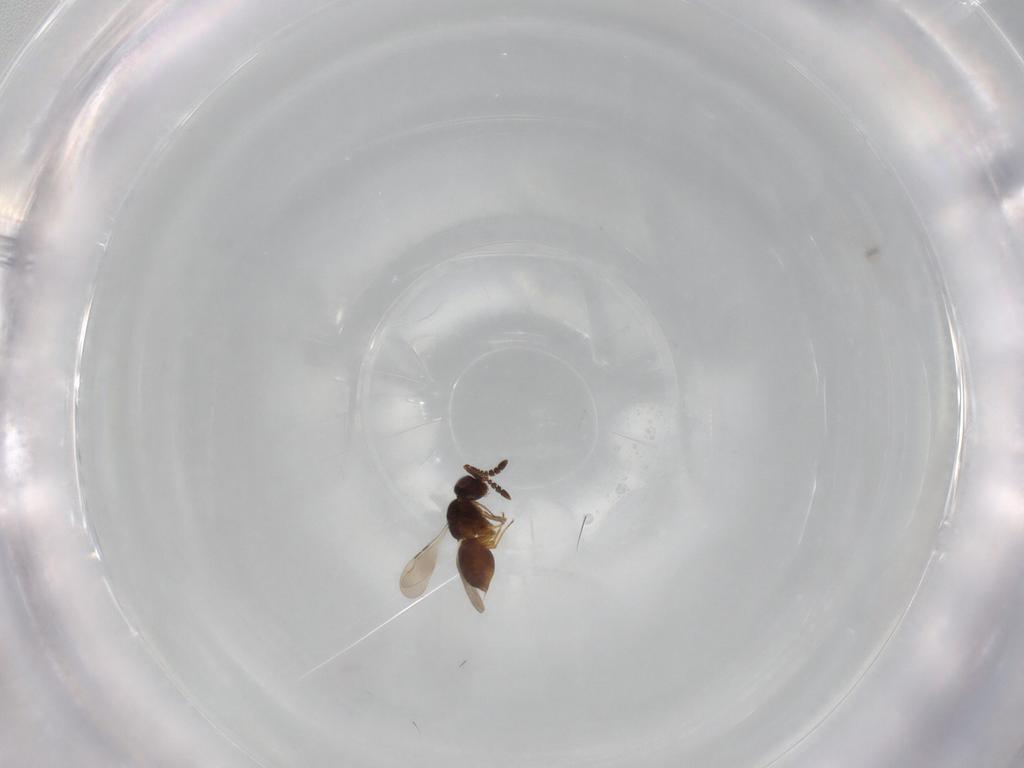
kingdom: Animalia
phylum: Arthropoda
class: Insecta
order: Hymenoptera
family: Ceraphronidae
